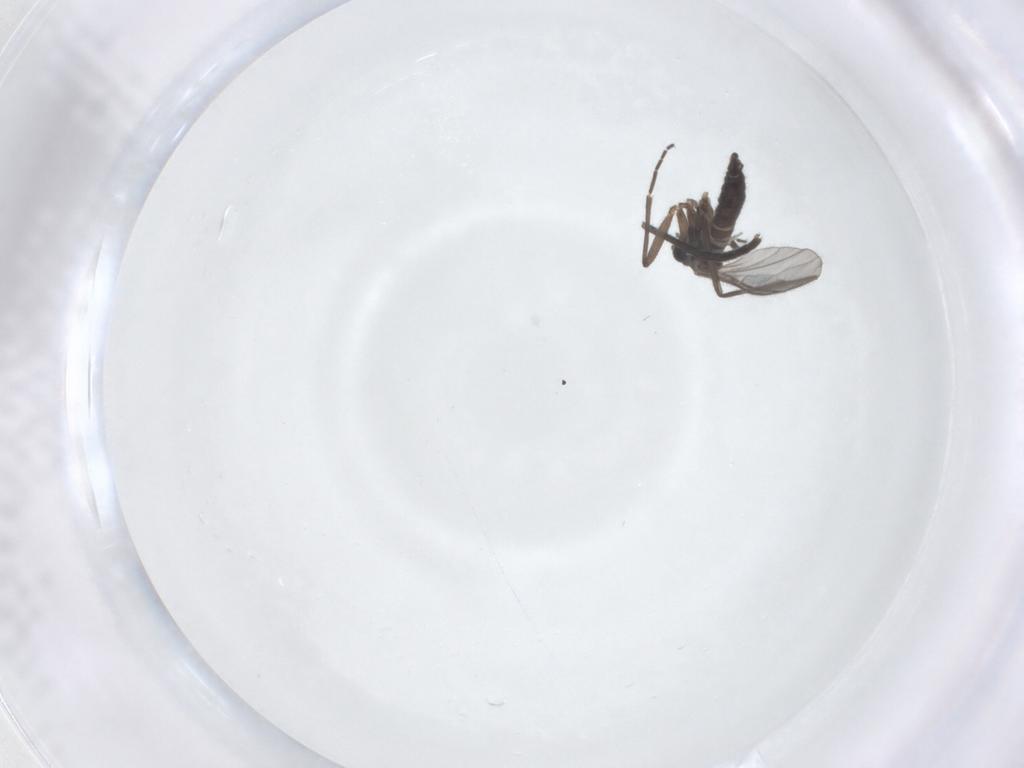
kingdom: Animalia
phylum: Arthropoda
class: Insecta
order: Diptera
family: Sciaridae
